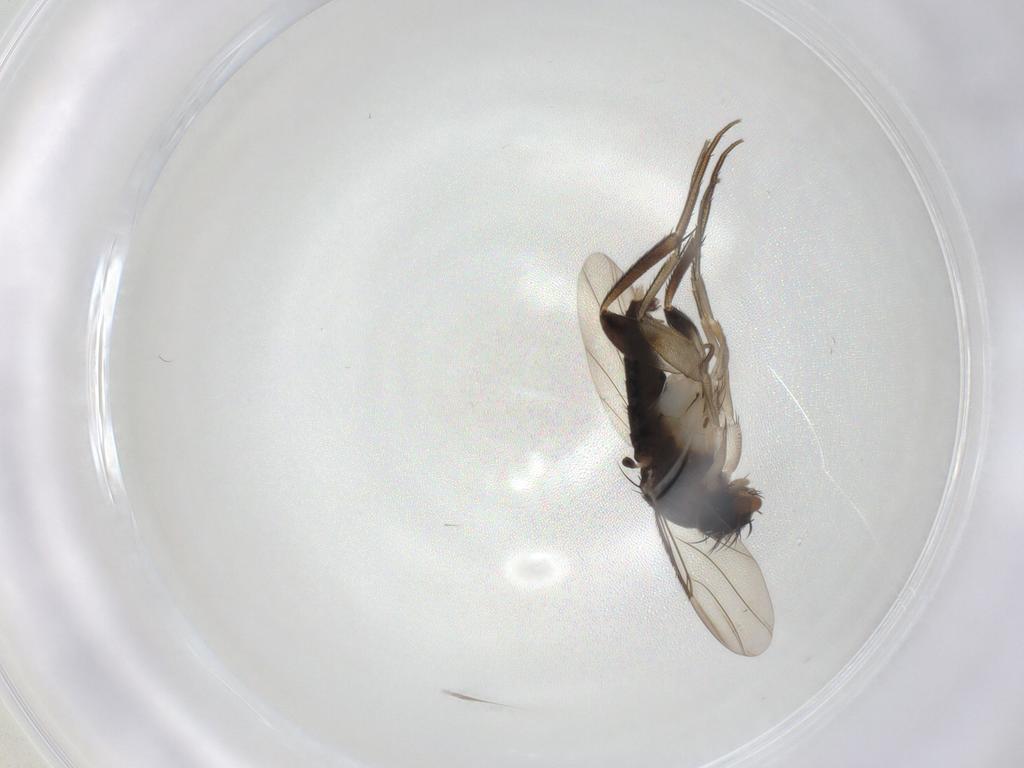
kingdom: Animalia
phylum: Arthropoda
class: Insecta
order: Diptera
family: Phoridae
